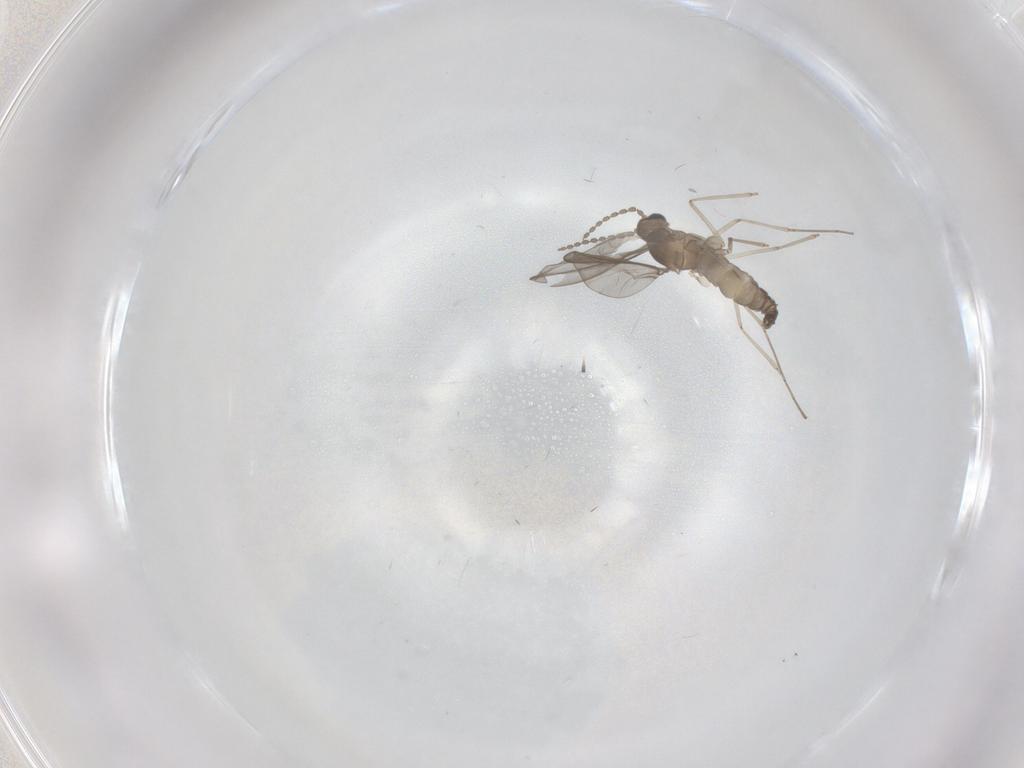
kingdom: Animalia
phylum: Arthropoda
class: Insecta
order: Diptera
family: Cecidomyiidae
